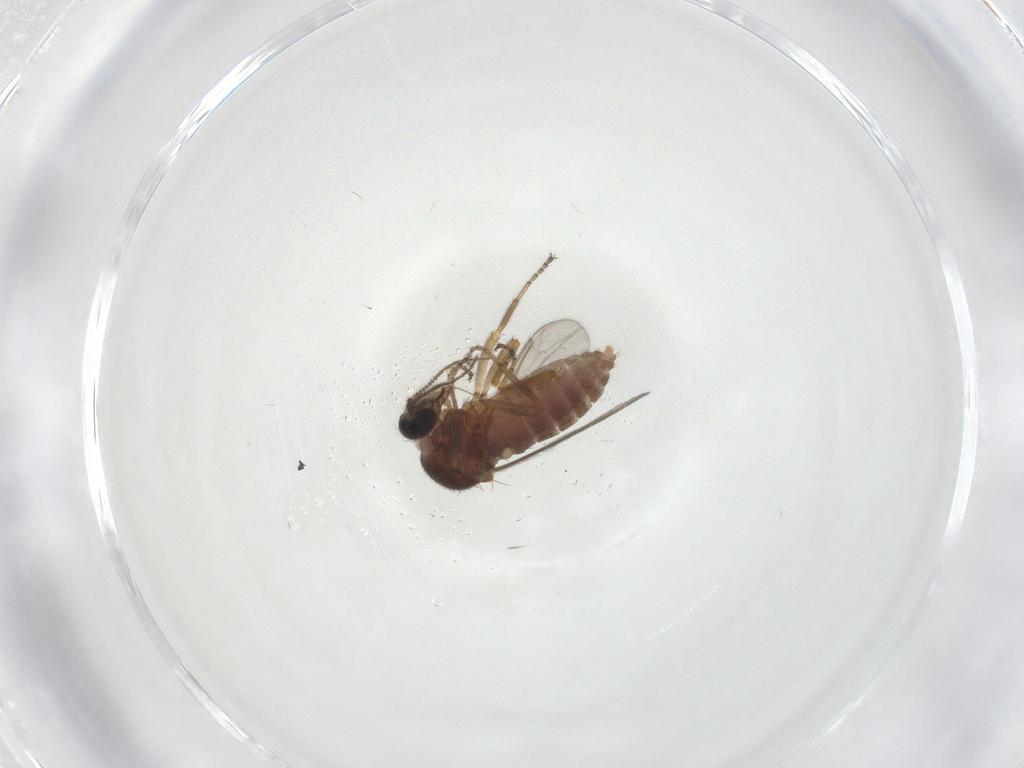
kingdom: Animalia
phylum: Arthropoda
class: Insecta
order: Diptera
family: Ceratopogonidae
